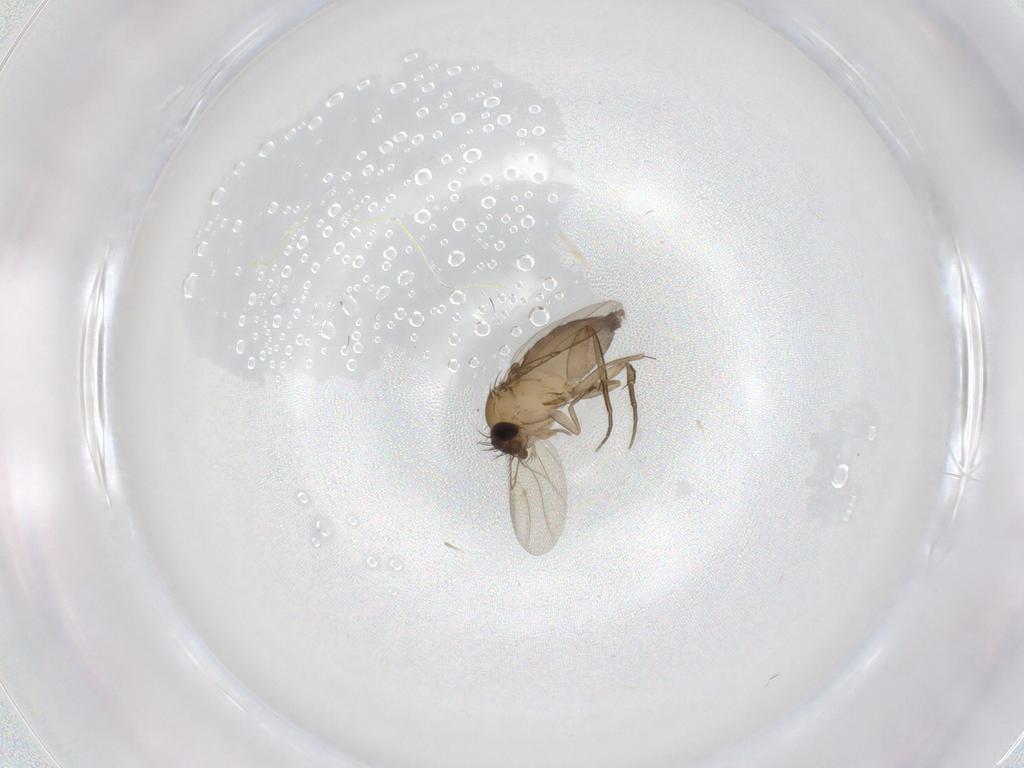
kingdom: Animalia
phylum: Arthropoda
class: Insecta
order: Diptera
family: Phoridae
